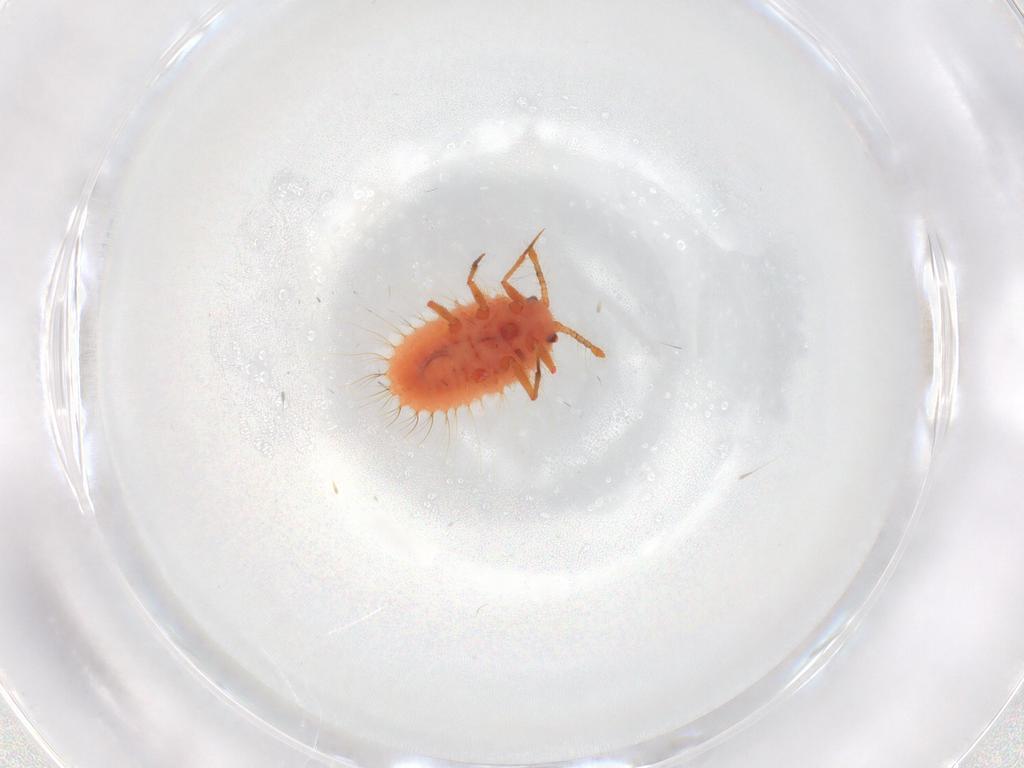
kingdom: Animalia
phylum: Arthropoda
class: Insecta
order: Hemiptera
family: Coccoidea_incertae_sedis
